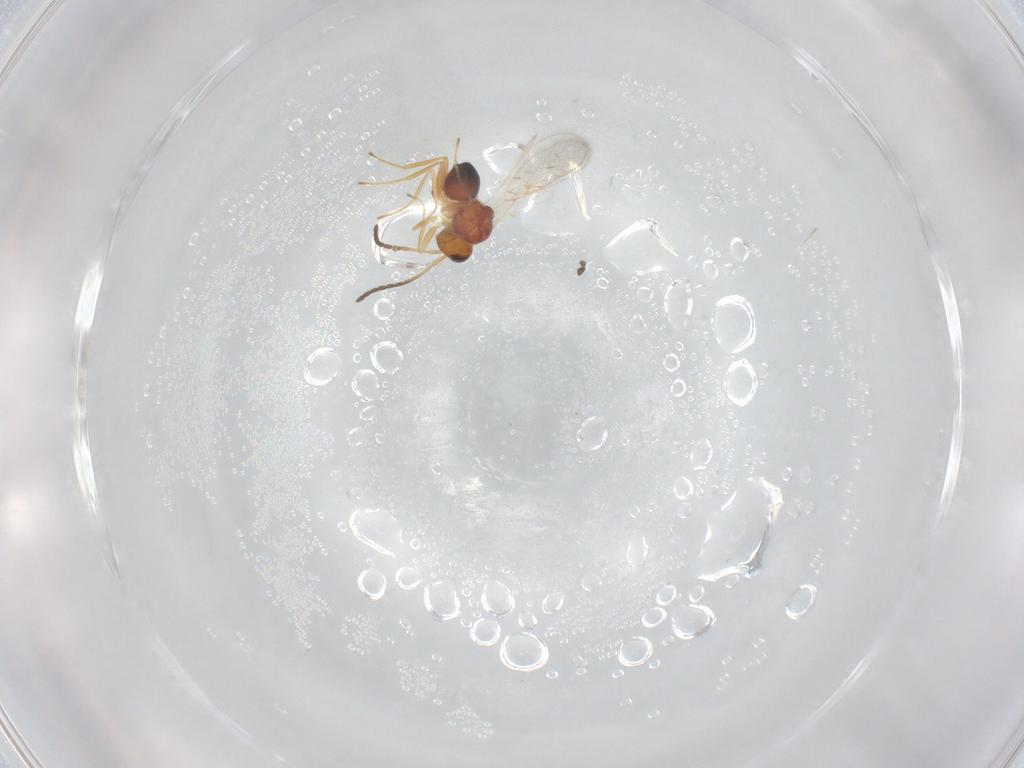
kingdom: Animalia
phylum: Arthropoda
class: Insecta
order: Hymenoptera
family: Figitidae
